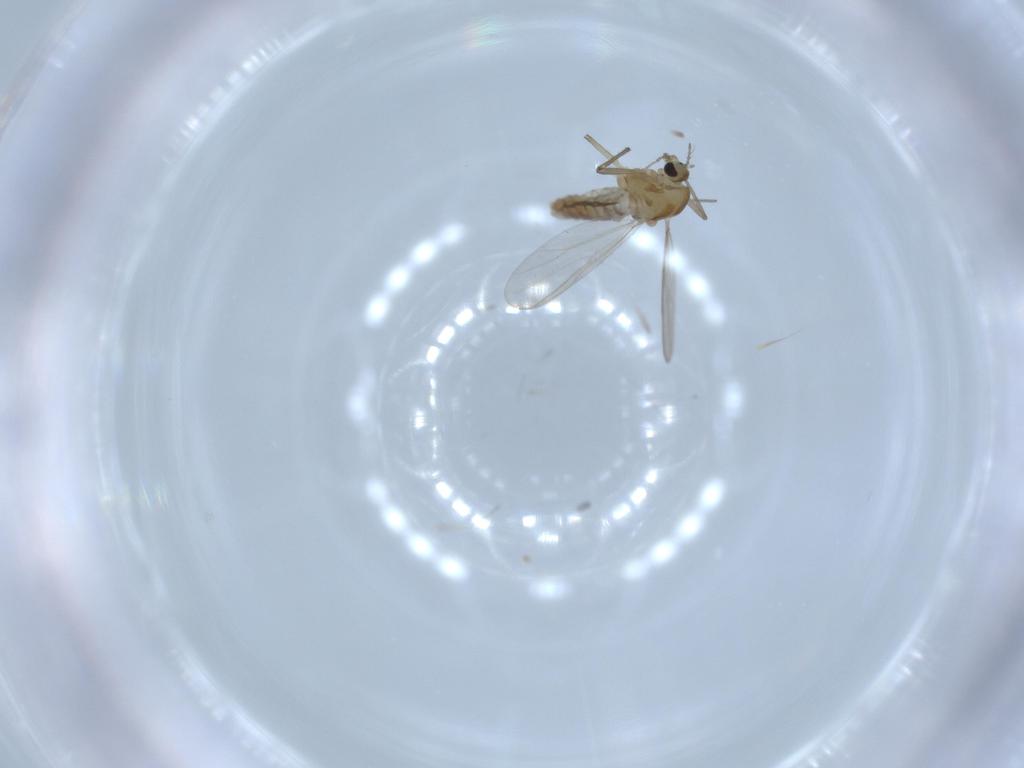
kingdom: Animalia
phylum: Arthropoda
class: Insecta
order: Diptera
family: Chironomidae
